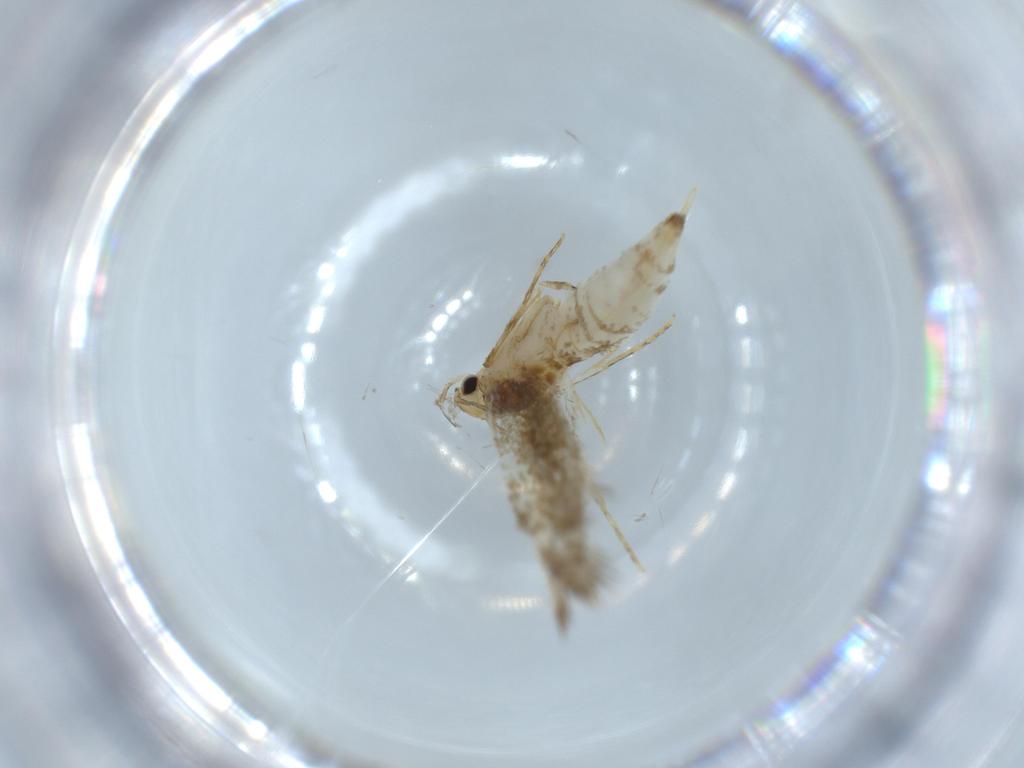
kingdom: Animalia
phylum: Arthropoda
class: Insecta
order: Lepidoptera
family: Tineidae
